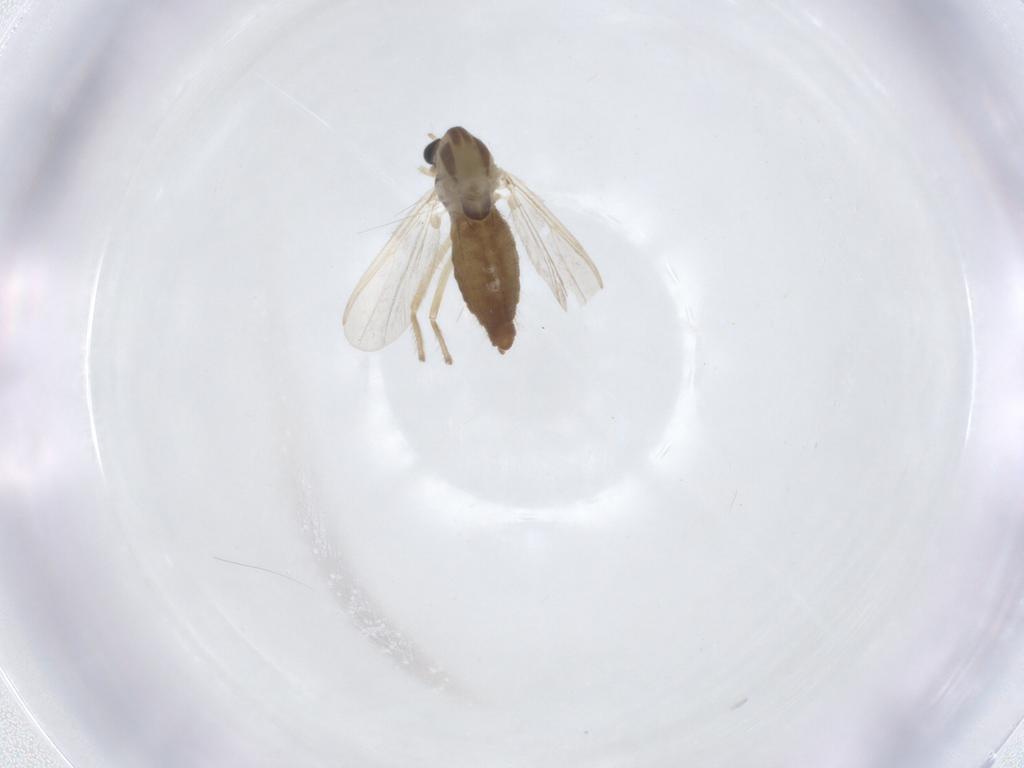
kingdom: Animalia
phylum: Arthropoda
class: Insecta
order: Diptera
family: Chironomidae
